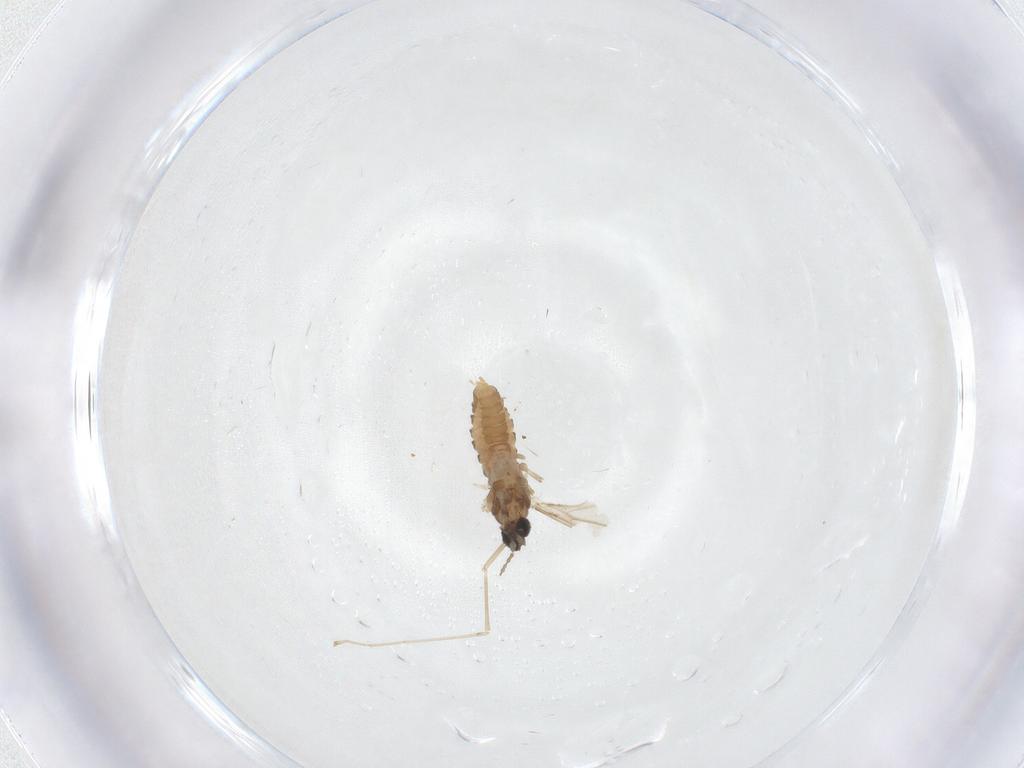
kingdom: Animalia
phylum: Arthropoda
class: Insecta
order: Diptera
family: Cecidomyiidae
